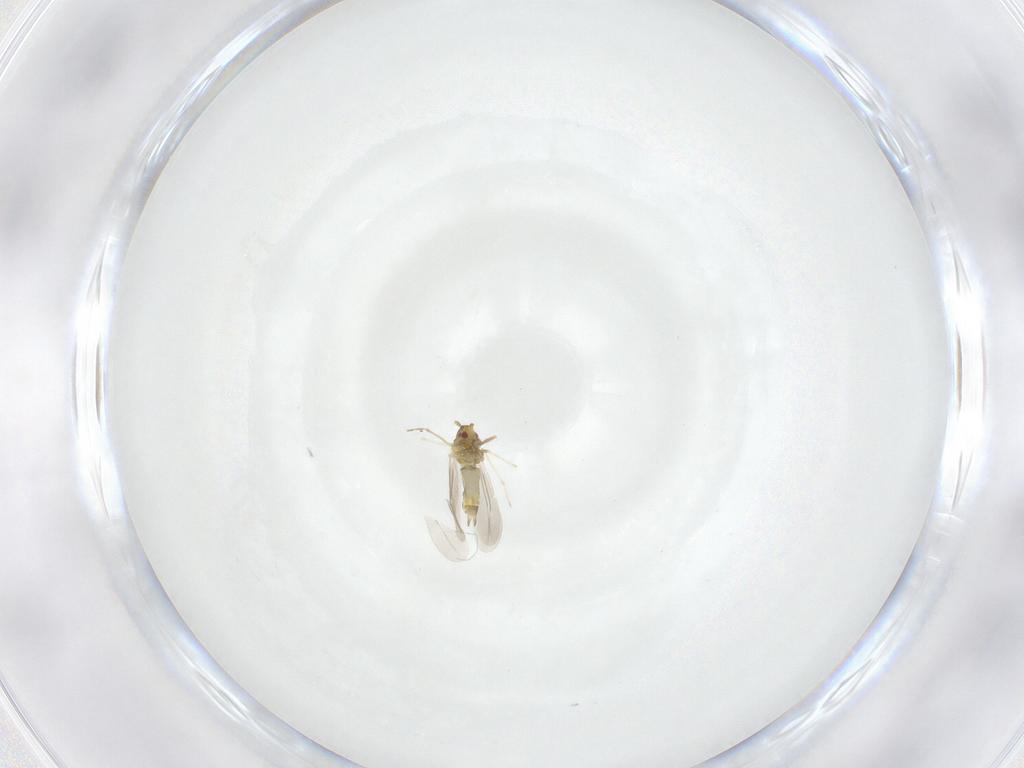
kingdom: Animalia
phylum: Arthropoda
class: Insecta
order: Hemiptera
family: Aleyrodidae
